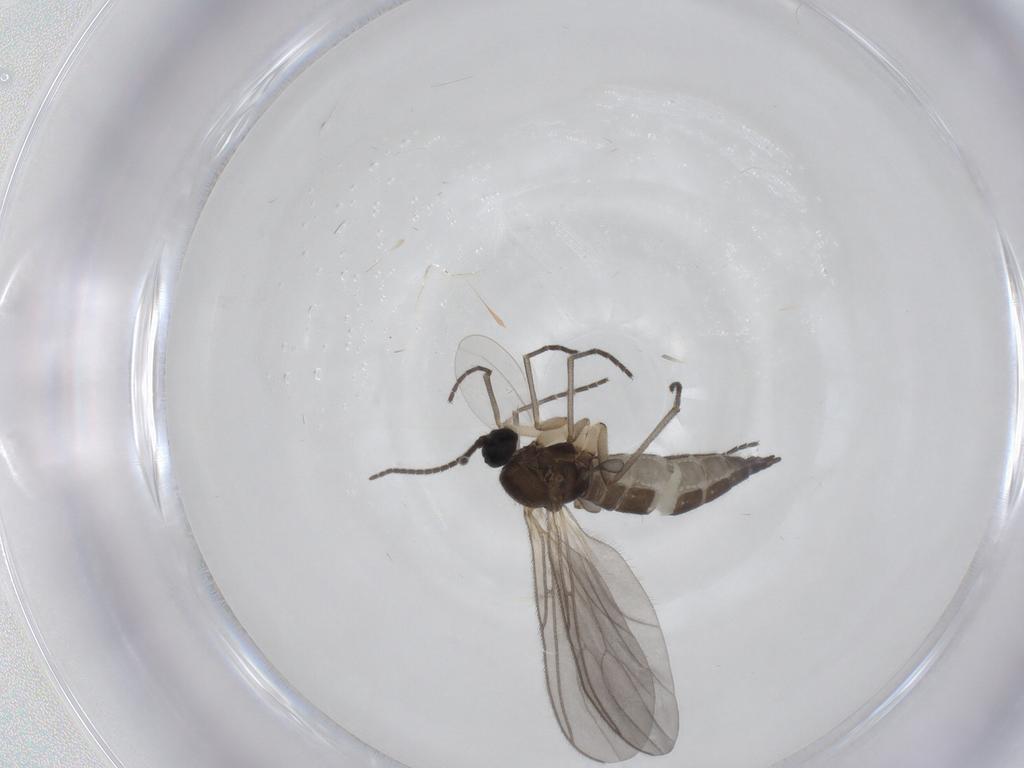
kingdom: Animalia
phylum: Arthropoda
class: Insecta
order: Diptera
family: Sciaridae
